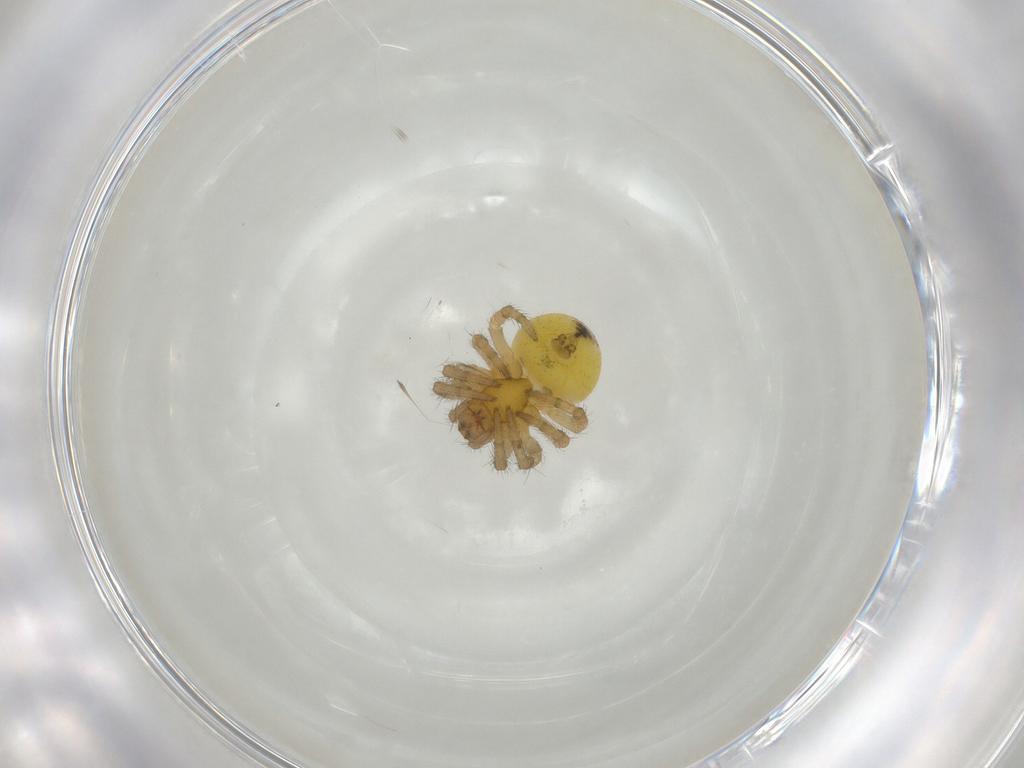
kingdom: Animalia
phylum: Arthropoda
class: Arachnida
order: Araneae
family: Araneidae
